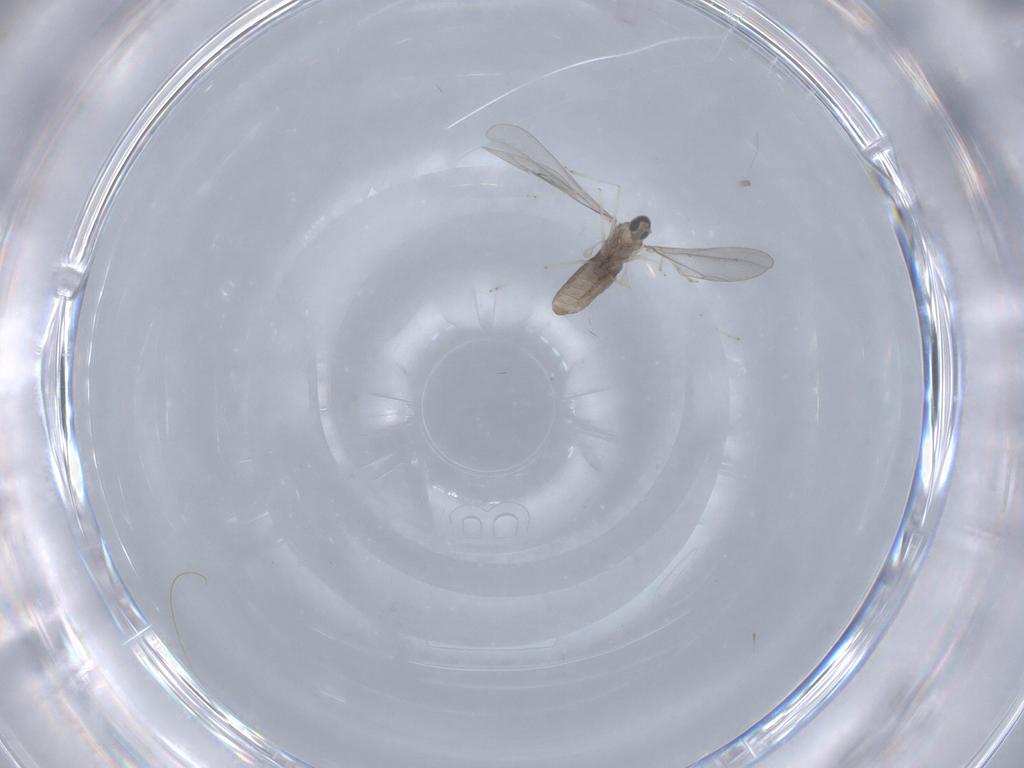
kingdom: Animalia
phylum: Arthropoda
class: Insecta
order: Diptera
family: Cecidomyiidae
